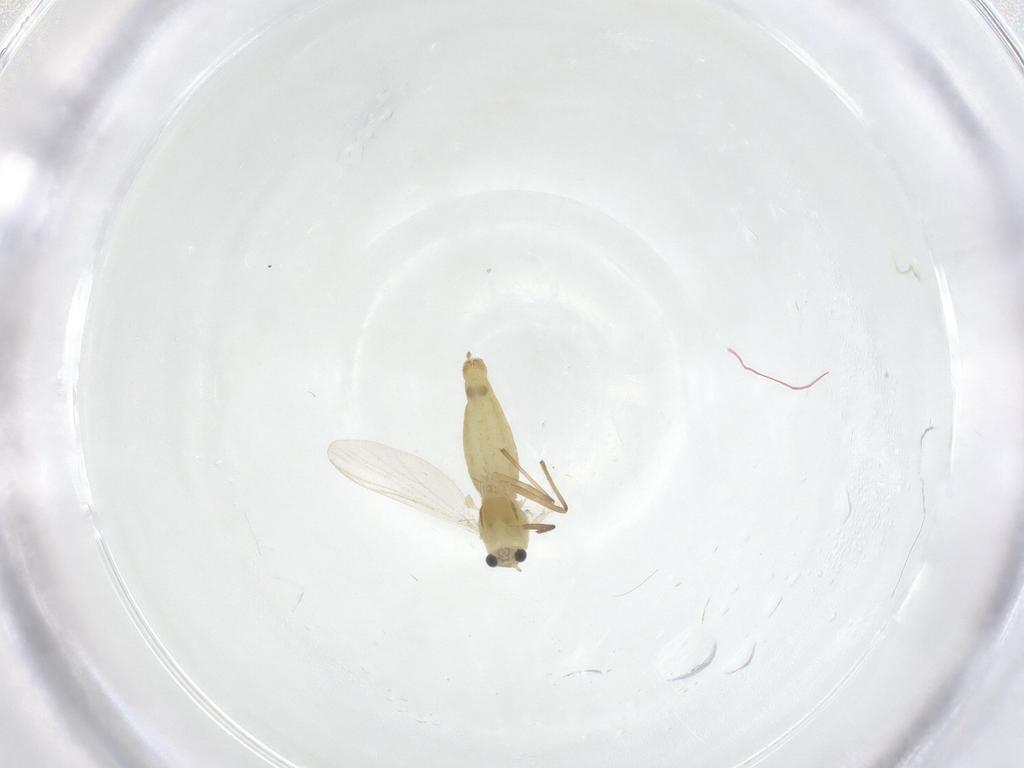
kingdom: Animalia
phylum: Arthropoda
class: Insecta
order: Diptera
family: Chironomidae
